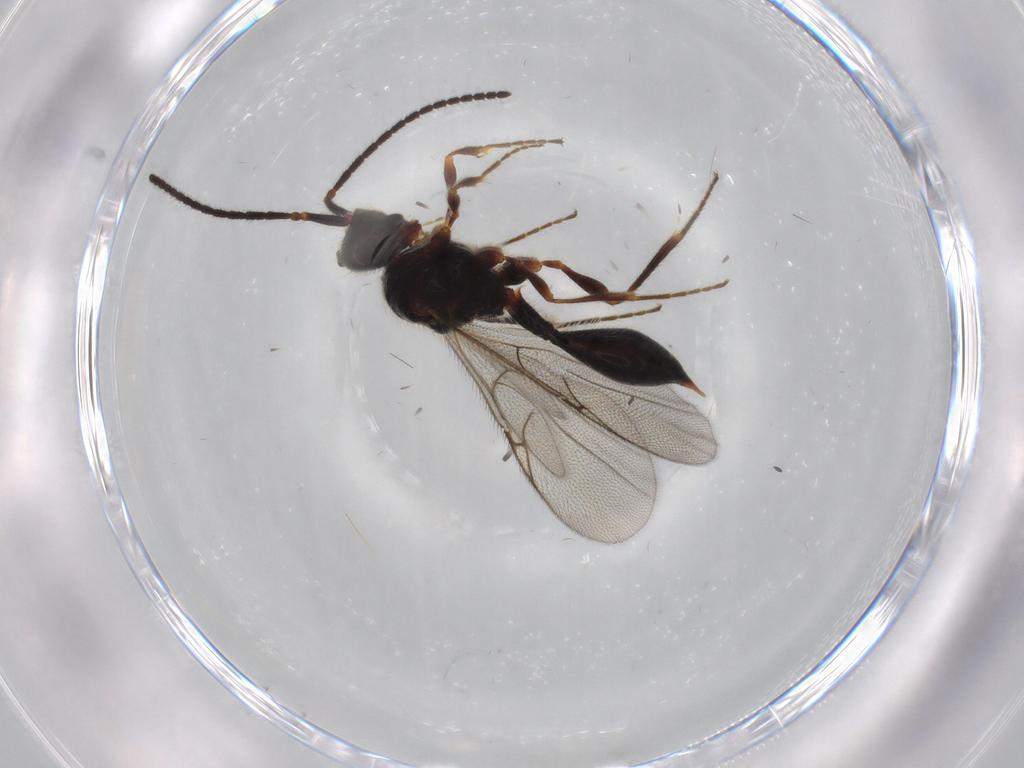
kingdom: Animalia
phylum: Arthropoda
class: Insecta
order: Hymenoptera
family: Diapriidae
